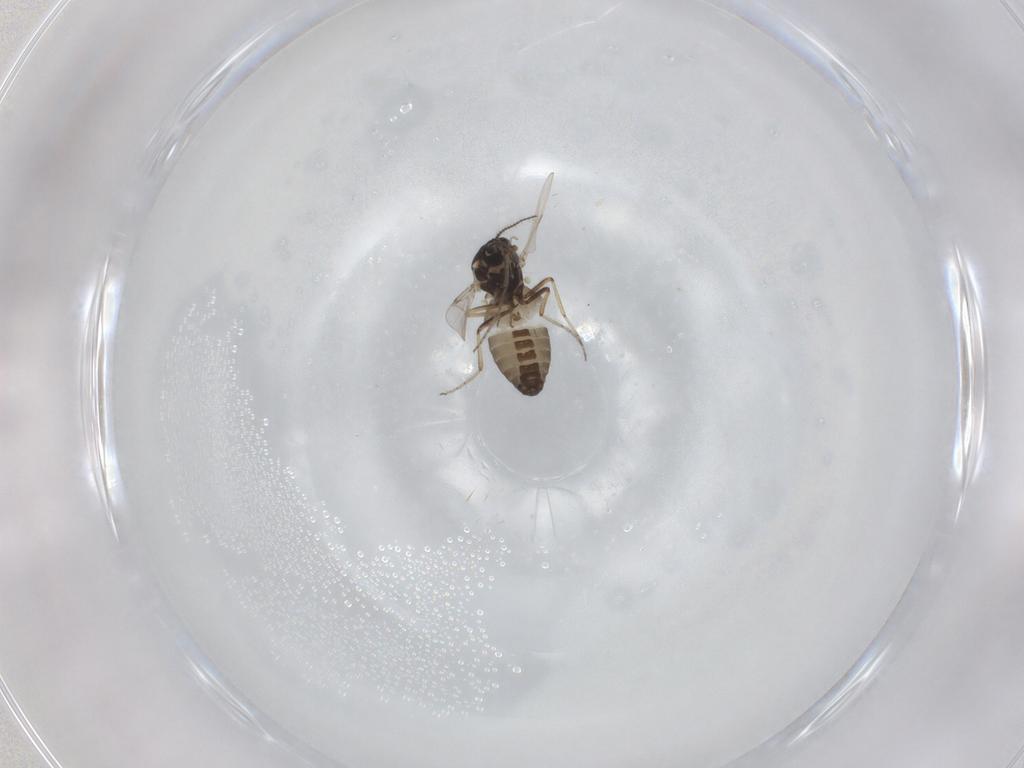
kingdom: Animalia
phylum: Arthropoda
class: Insecta
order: Diptera
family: Ceratopogonidae
